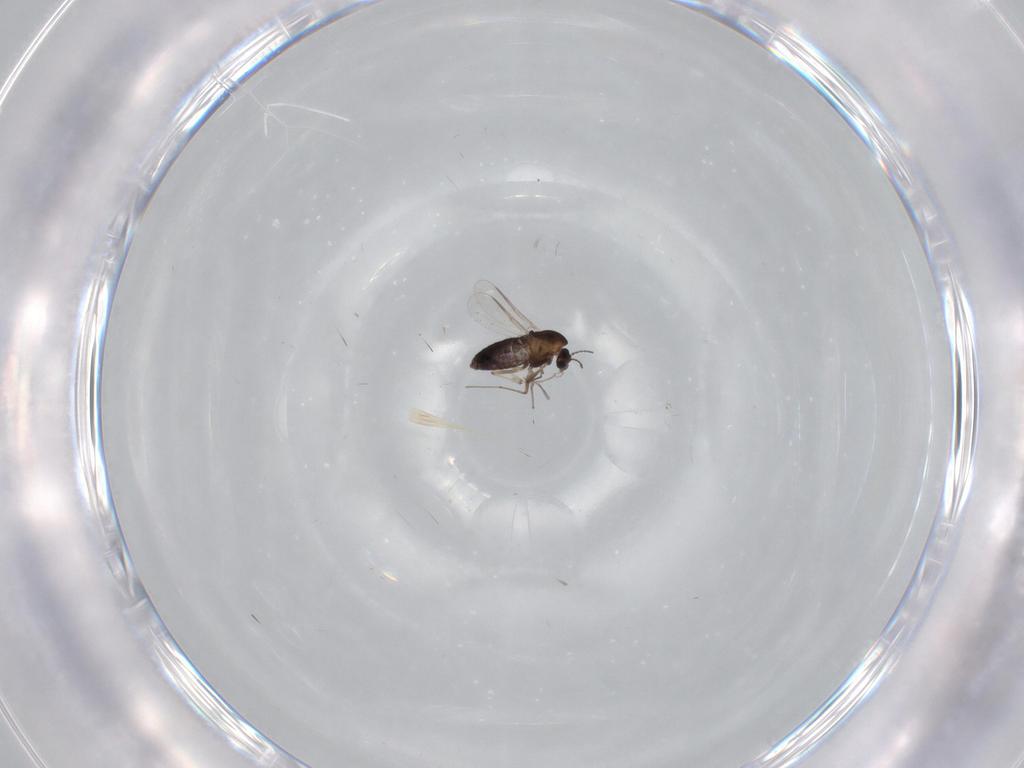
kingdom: Animalia
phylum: Arthropoda
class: Insecta
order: Diptera
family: Chironomidae
